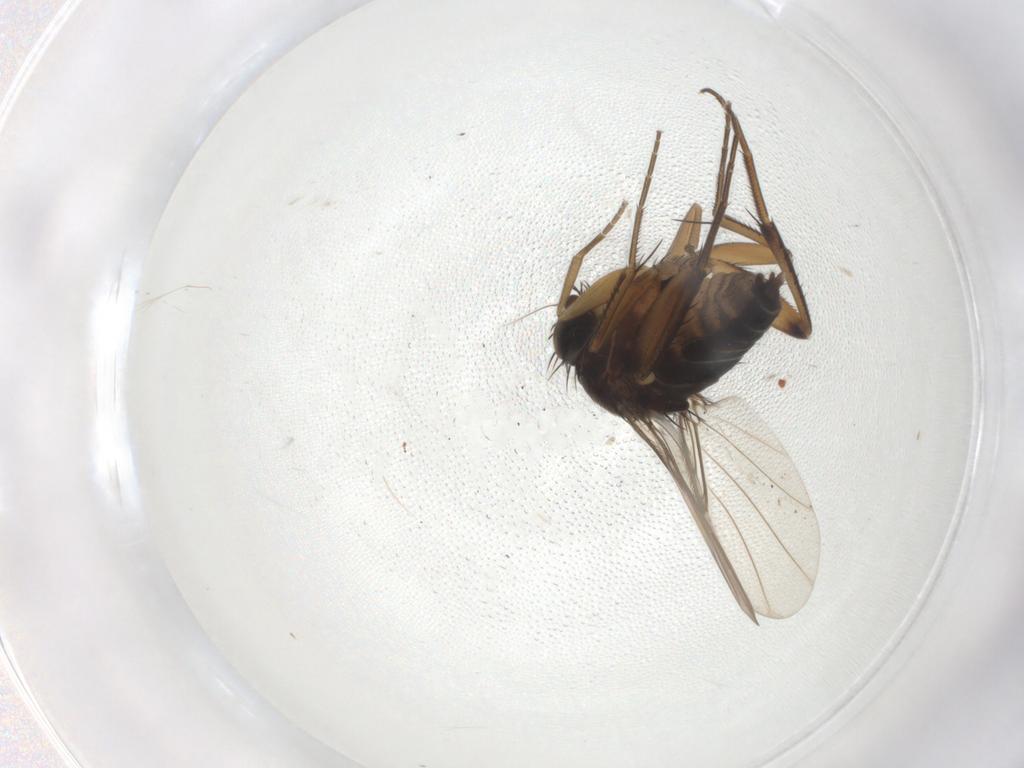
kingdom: Animalia
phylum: Arthropoda
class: Insecta
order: Diptera
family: Phoridae
